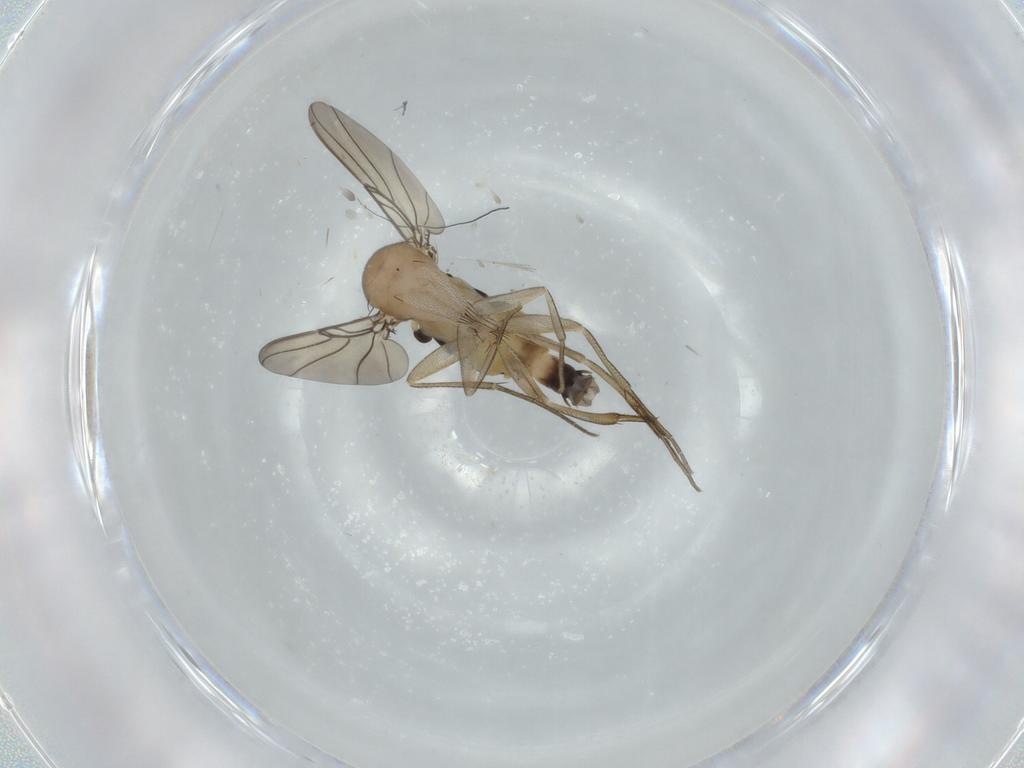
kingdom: Animalia
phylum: Arthropoda
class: Insecta
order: Diptera
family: Phoridae
